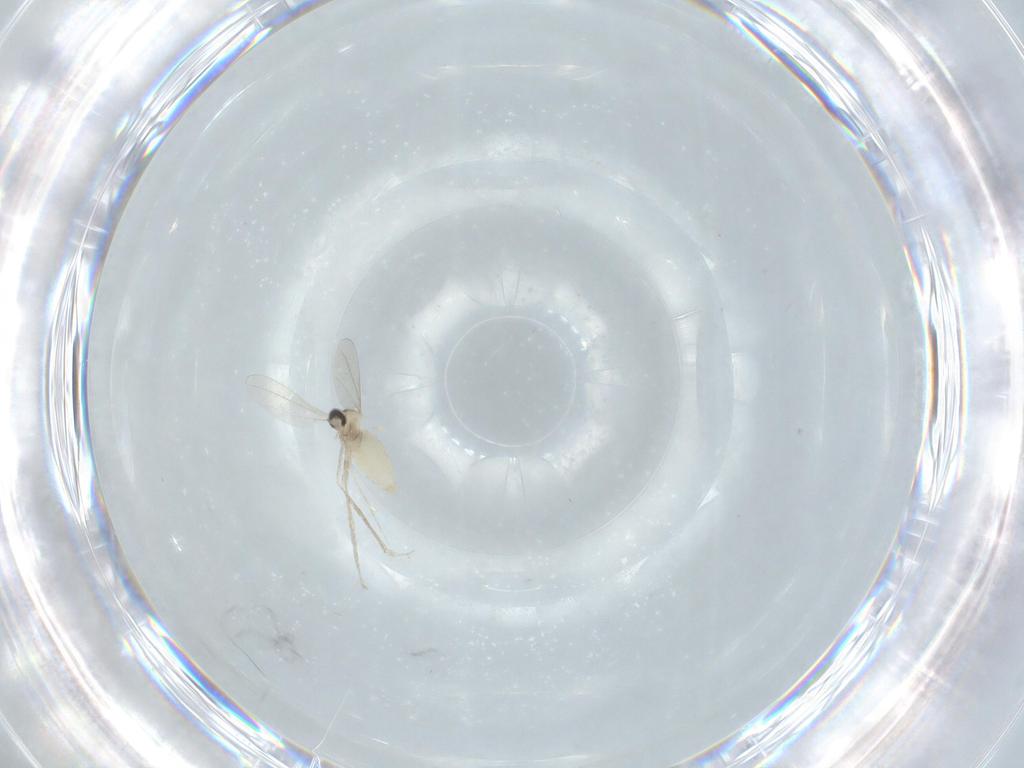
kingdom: Animalia
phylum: Arthropoda
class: Insecta
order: Diptera
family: Cecidomyiidae
